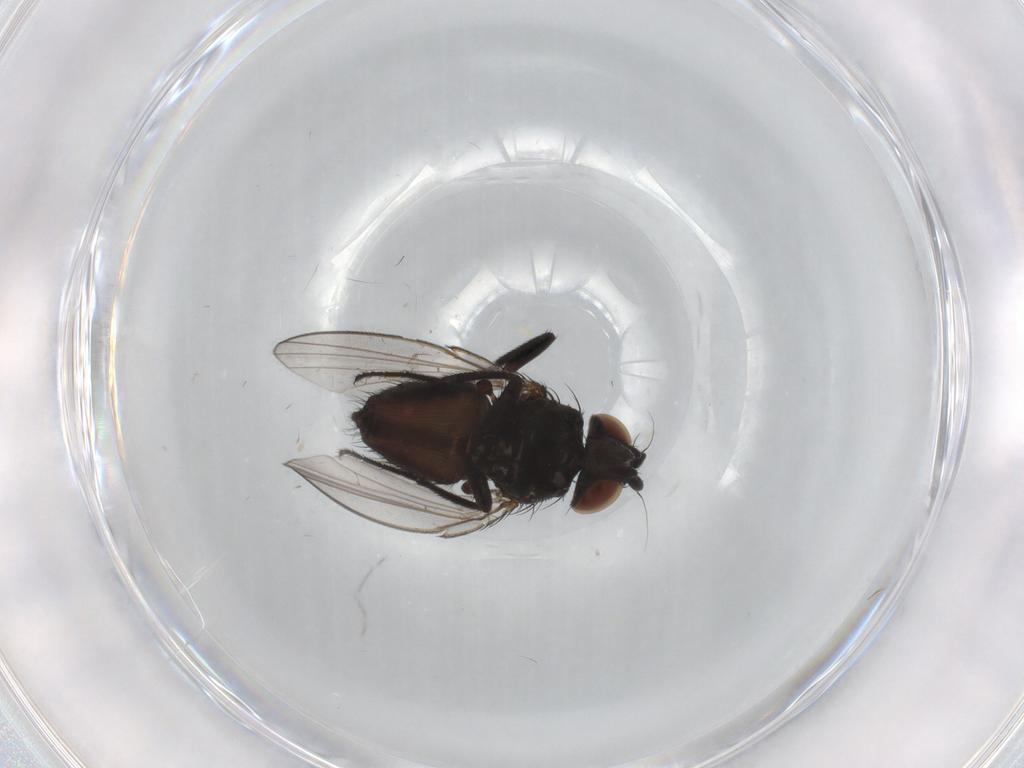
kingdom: Animalia
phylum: Arthropoda
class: Insecta
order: Diptera
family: Milichiidae
